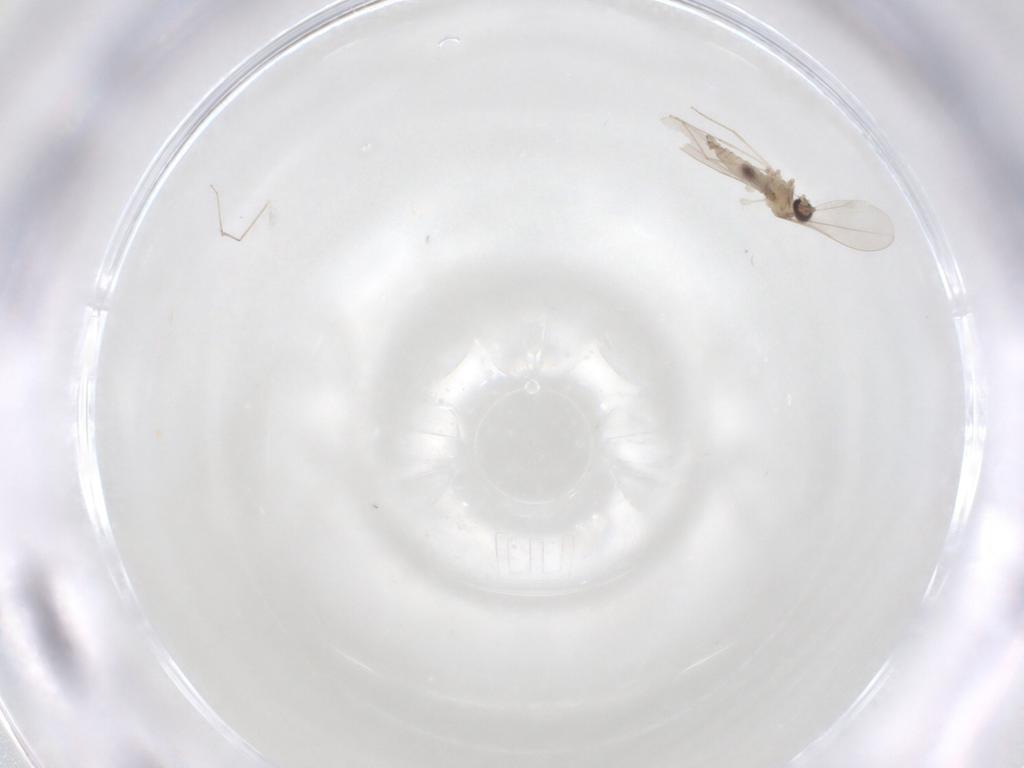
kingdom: Animalia
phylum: Arthropoda
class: Insecta
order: Diptera
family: Cecidomyiidae
